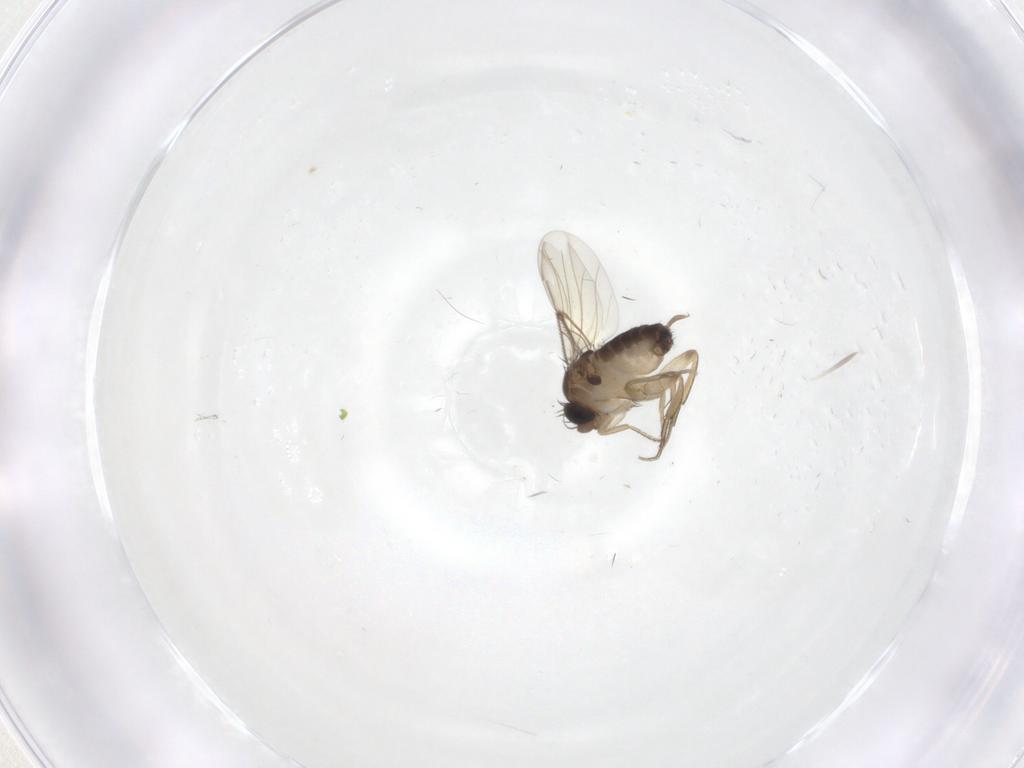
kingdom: Animalia
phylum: Arthropoda
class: Insecta
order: Diptera
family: Phoridae
